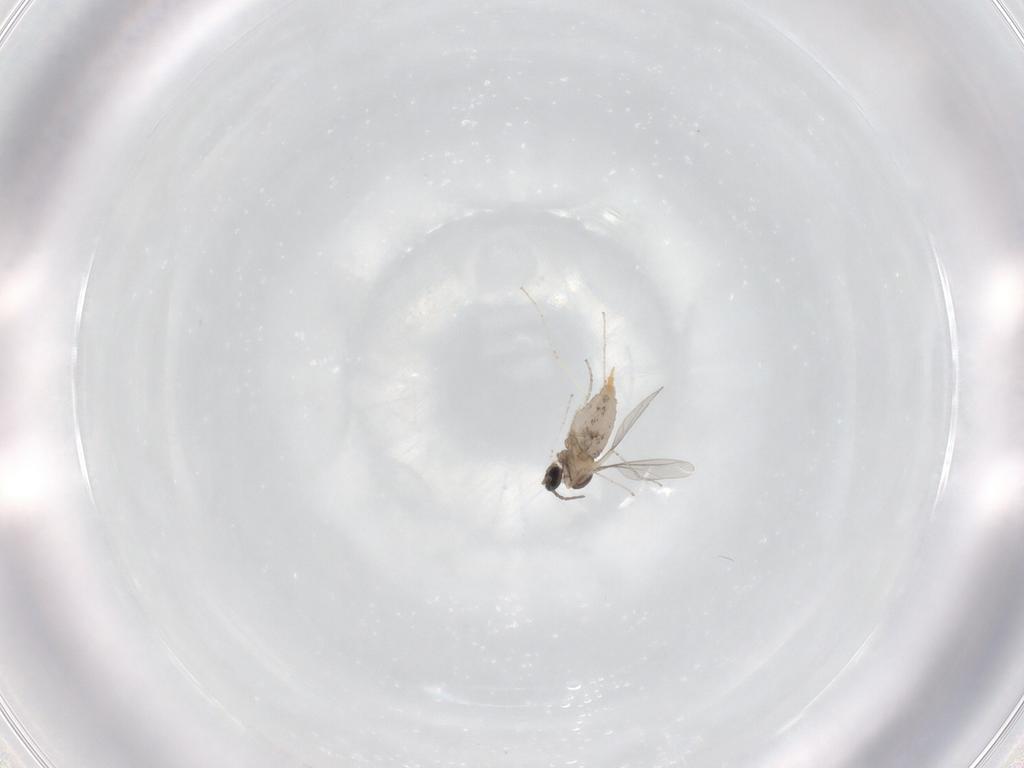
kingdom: Animalia
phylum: Arthropoda
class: Insecta
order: Diptera
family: Cecidomyiidae
